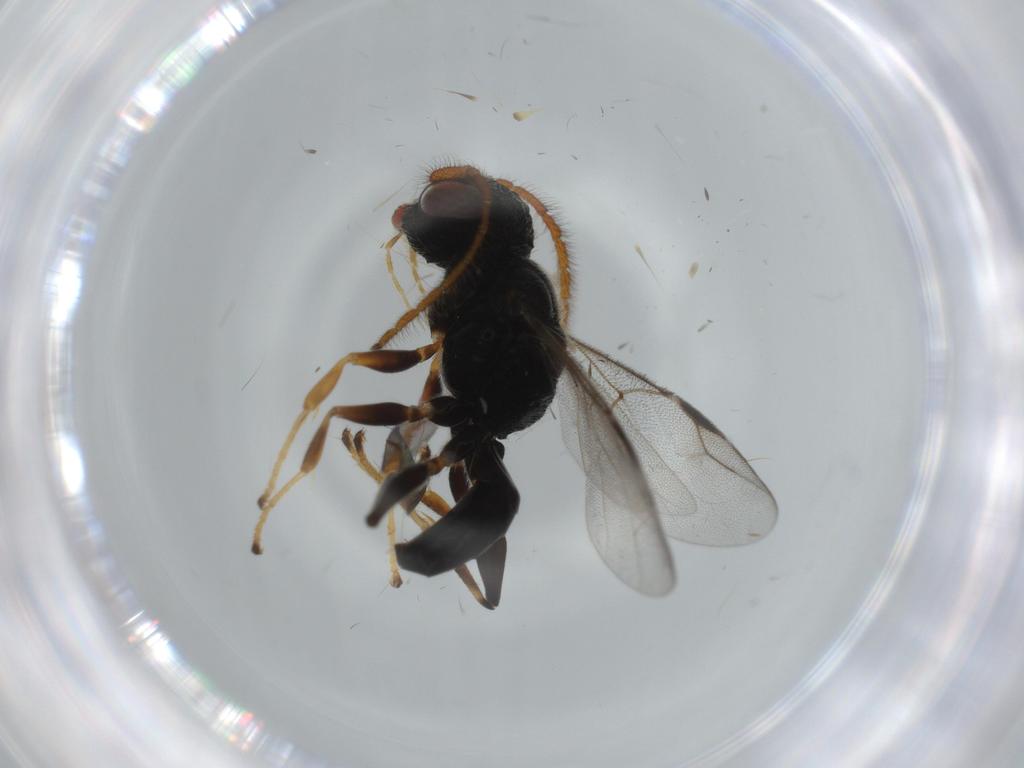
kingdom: Animalia
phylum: Arthropoda
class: Insecta
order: Hymenoptera
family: Dryinidae
